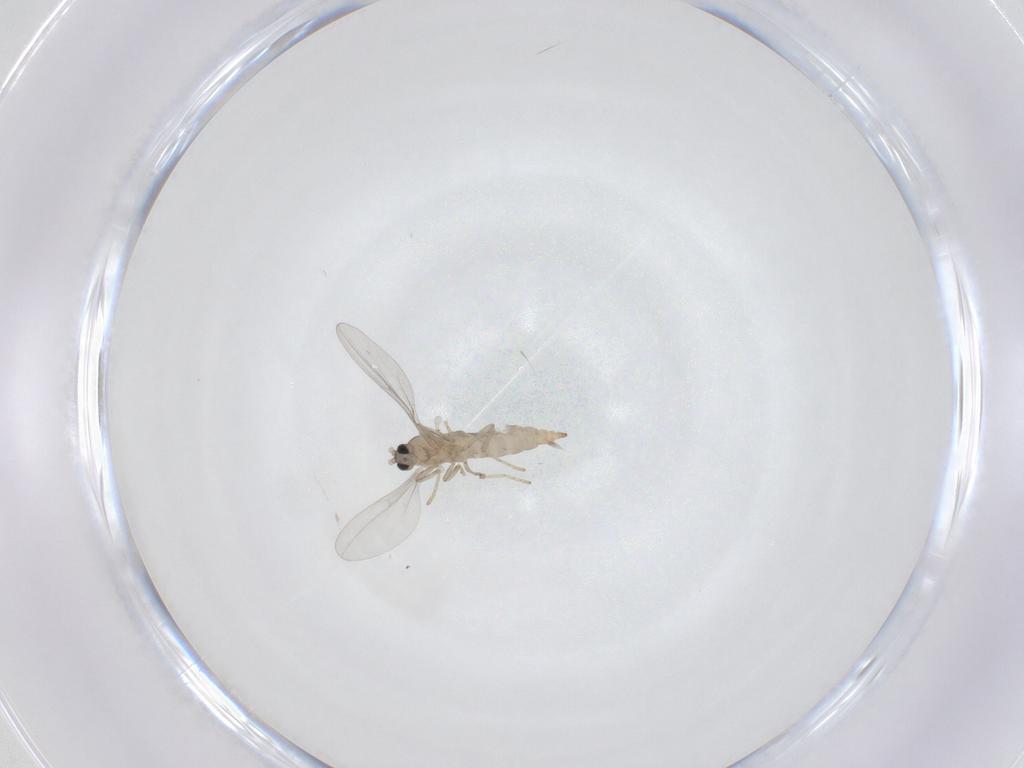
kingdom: Animalia
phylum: Arthropoda
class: Insecta
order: Diptera
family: Cecidomyiidae
